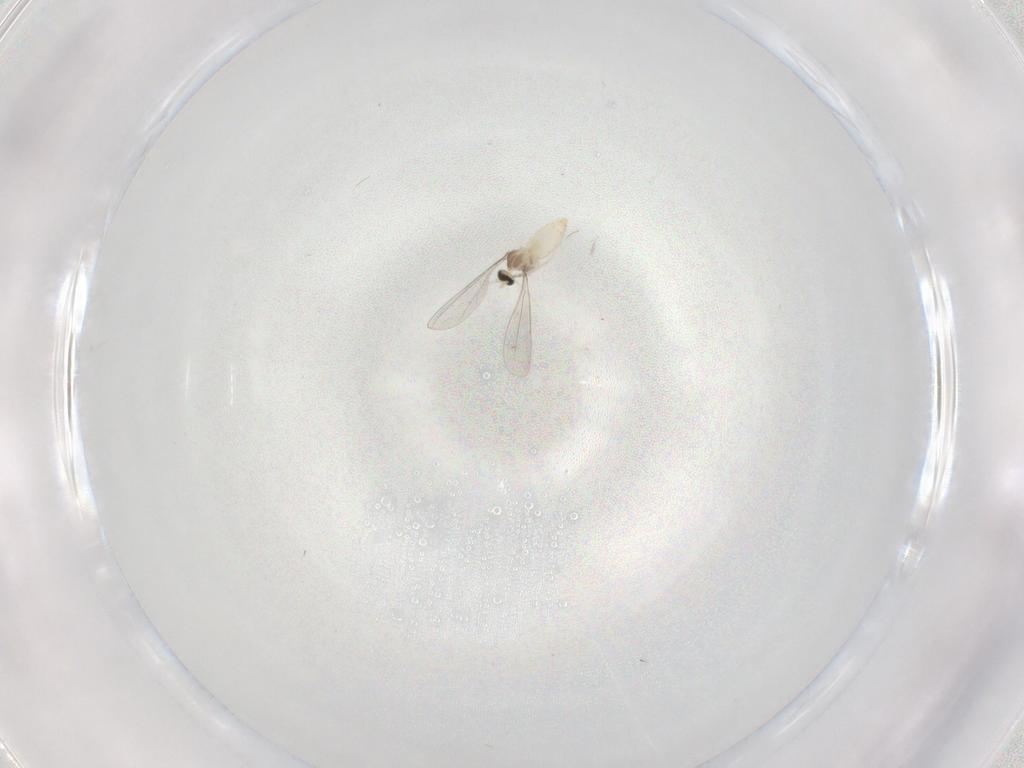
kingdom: Animalia
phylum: Arthropoda
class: Insecta
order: Diptera
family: Cecidomyiidae
